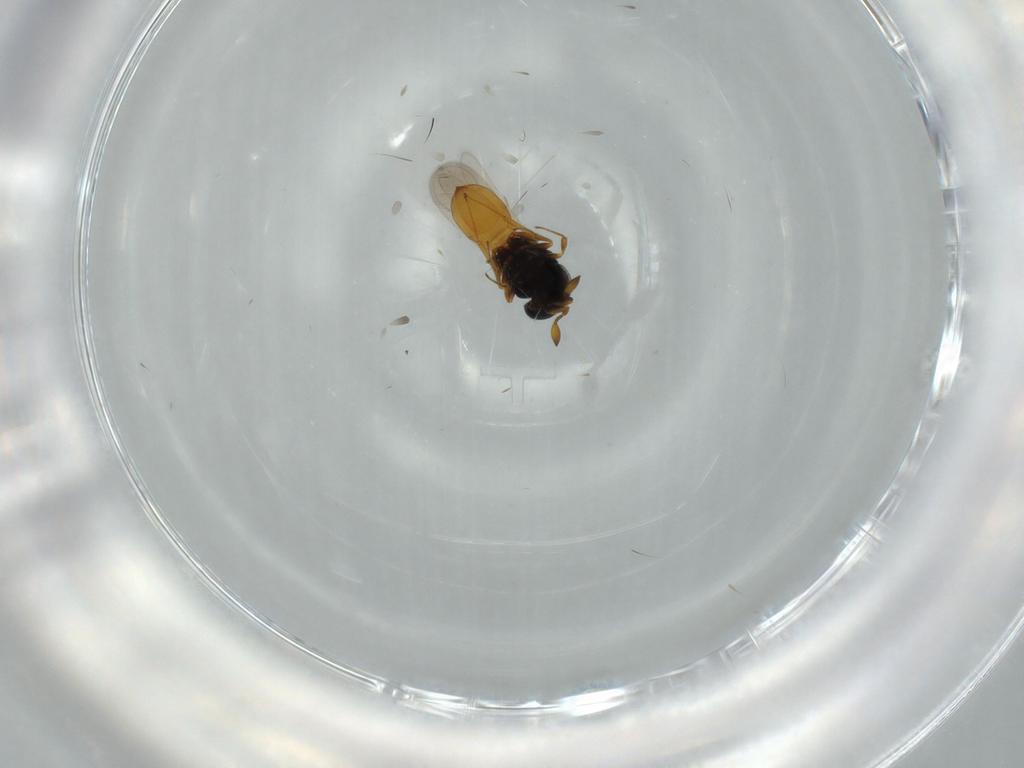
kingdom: Animalia
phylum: Arthropoda
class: Insecta
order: Hymenoptera
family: Scelionidae
